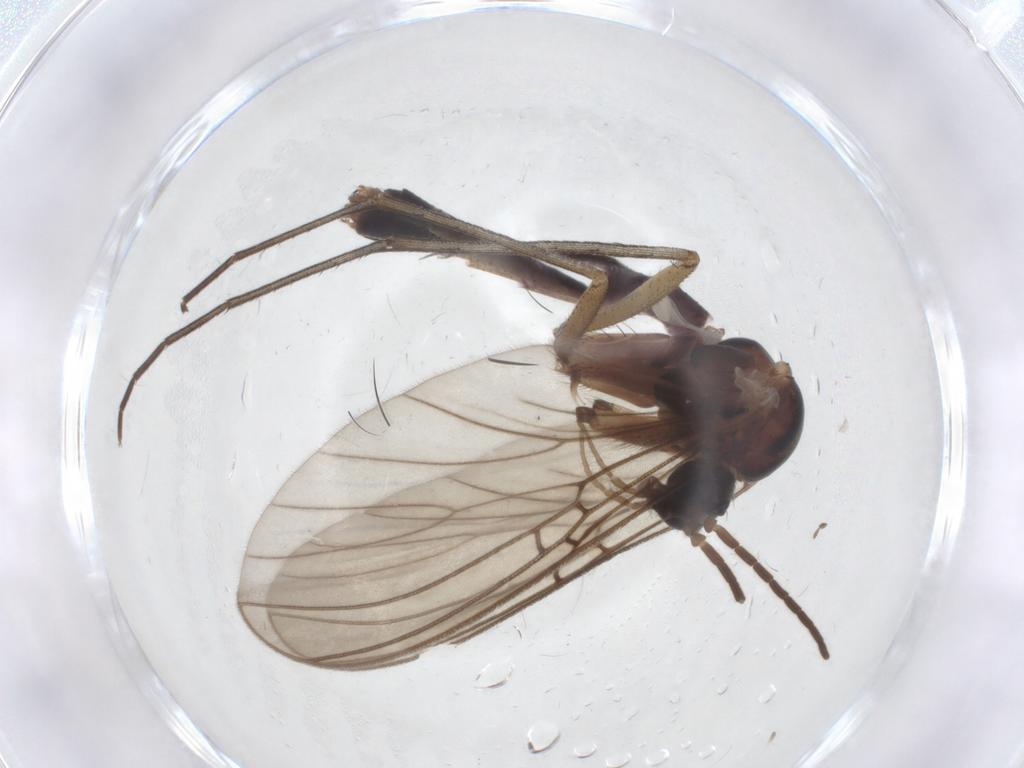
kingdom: Animalia
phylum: Arthropoda
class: Insecta
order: Diptera
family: Mycetophilidae
